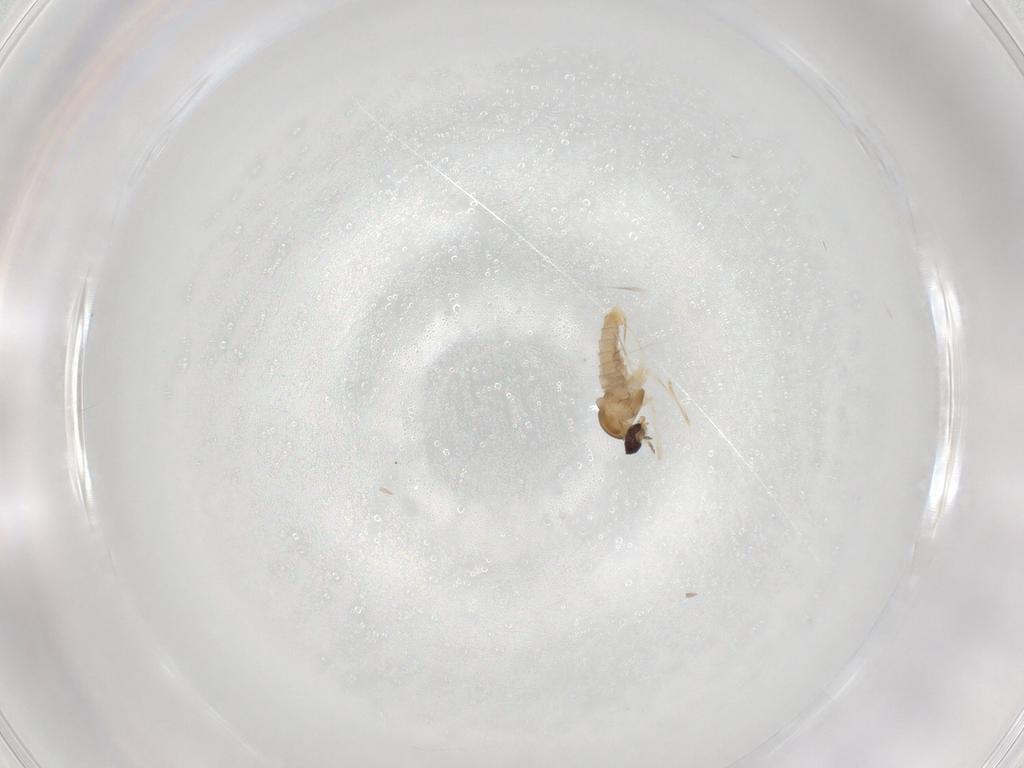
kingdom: Animalia
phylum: Arthropoda
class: Insecta
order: Diptera
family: Cecidomyiidae
